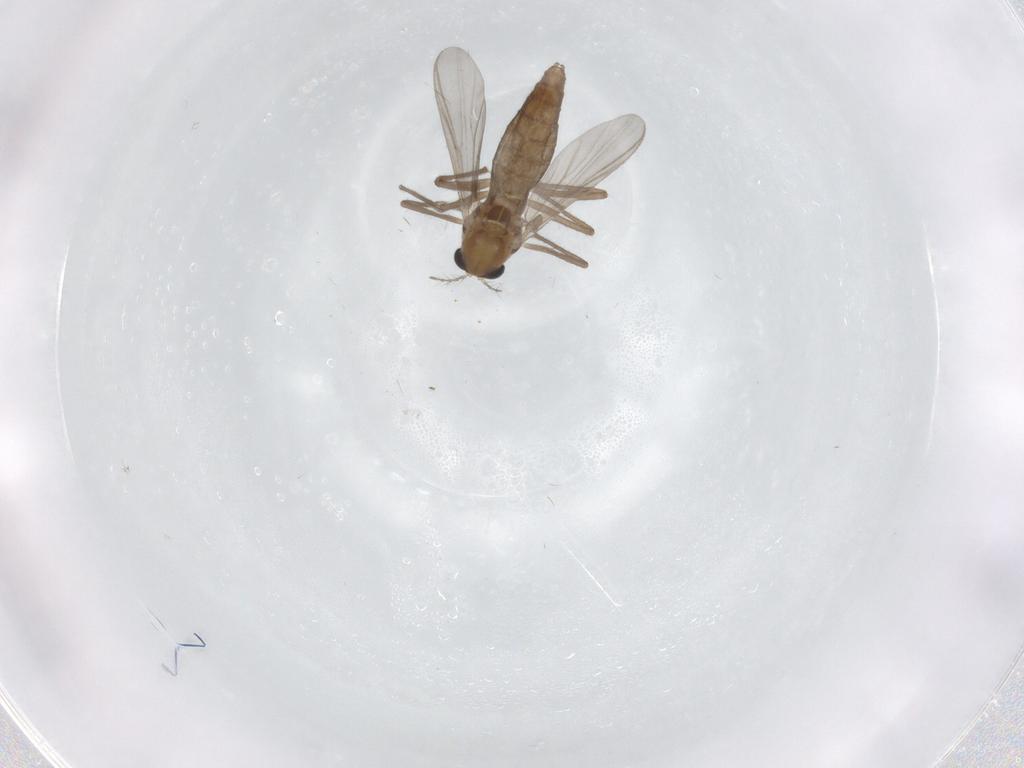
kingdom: Animalia
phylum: Arthropoda
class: Insecta
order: Diptera
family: Chironomidae
